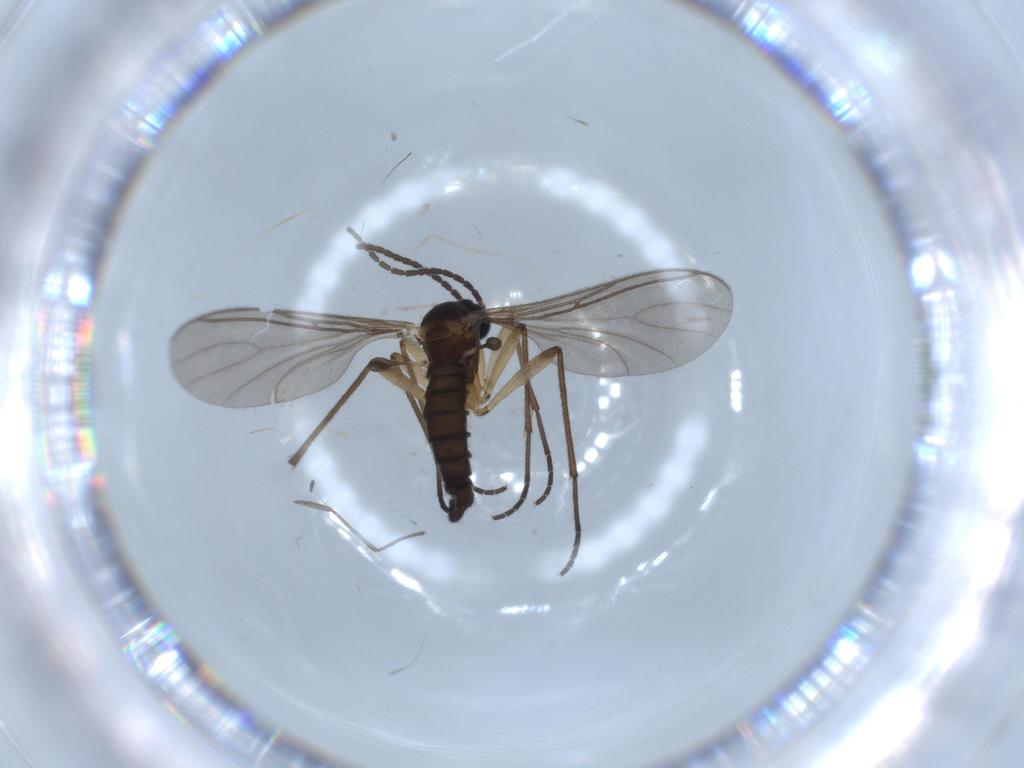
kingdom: Animalia
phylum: Arthropoda
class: Insecta
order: Diptera
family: Sciaridae
